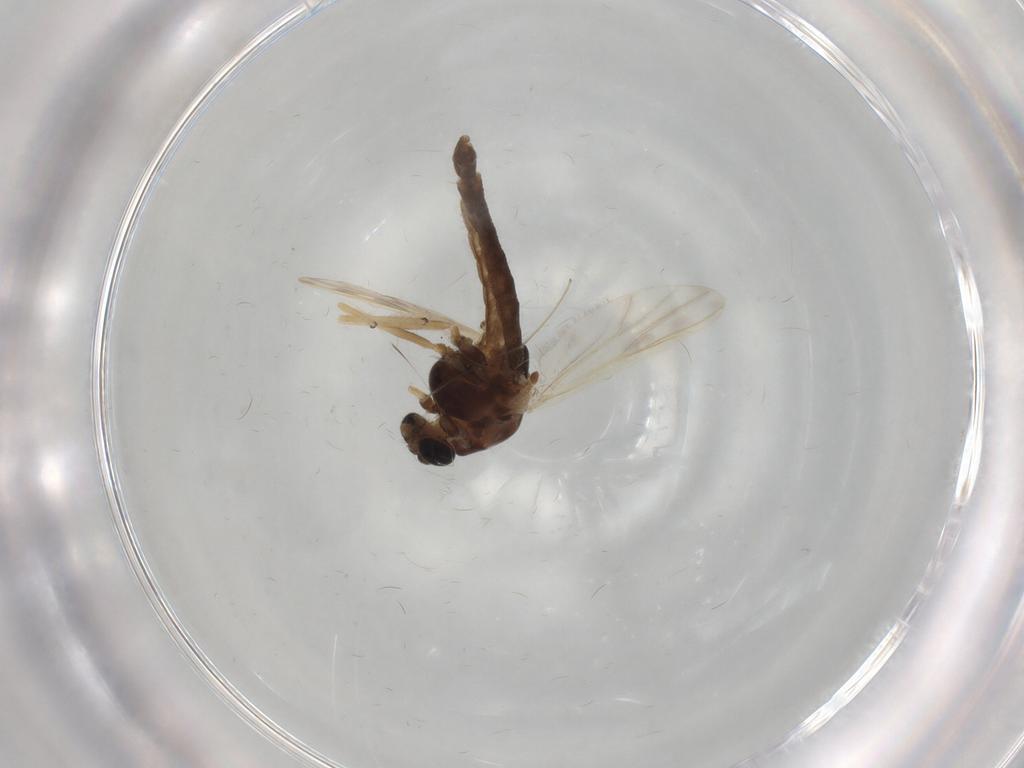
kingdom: Animalia
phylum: Arthropoda
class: Insecta
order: Diptera
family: Chironomidae
